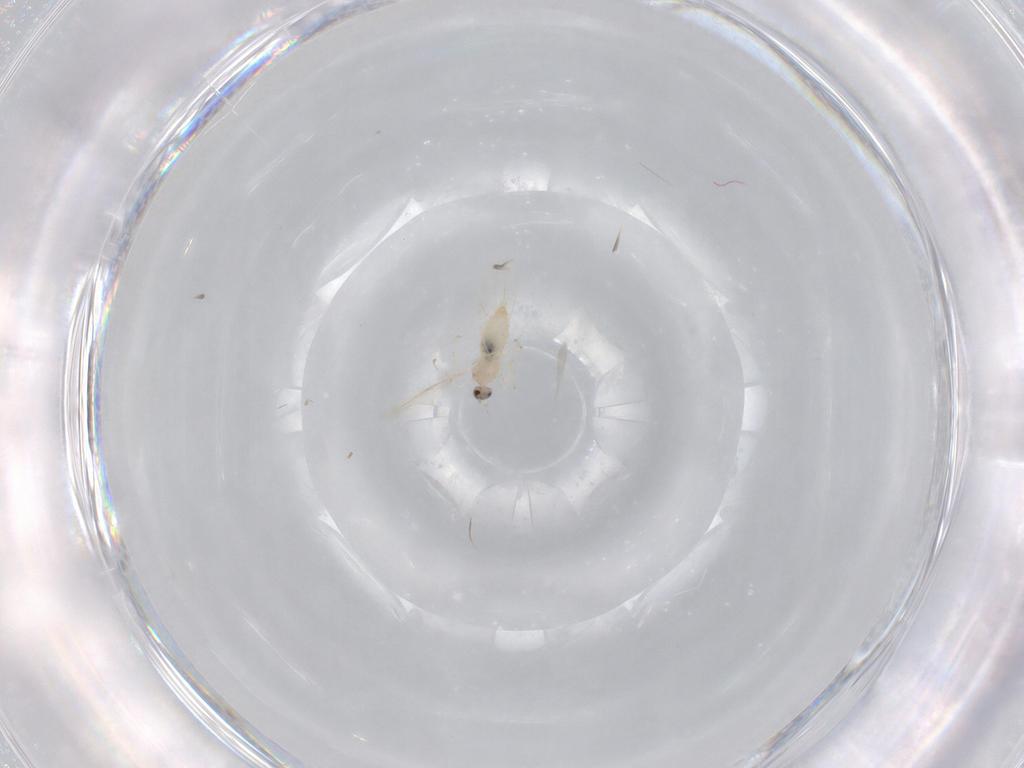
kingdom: Animalia
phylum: Arthropoda
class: Insecta
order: Diptera
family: Cecidomyiidae
